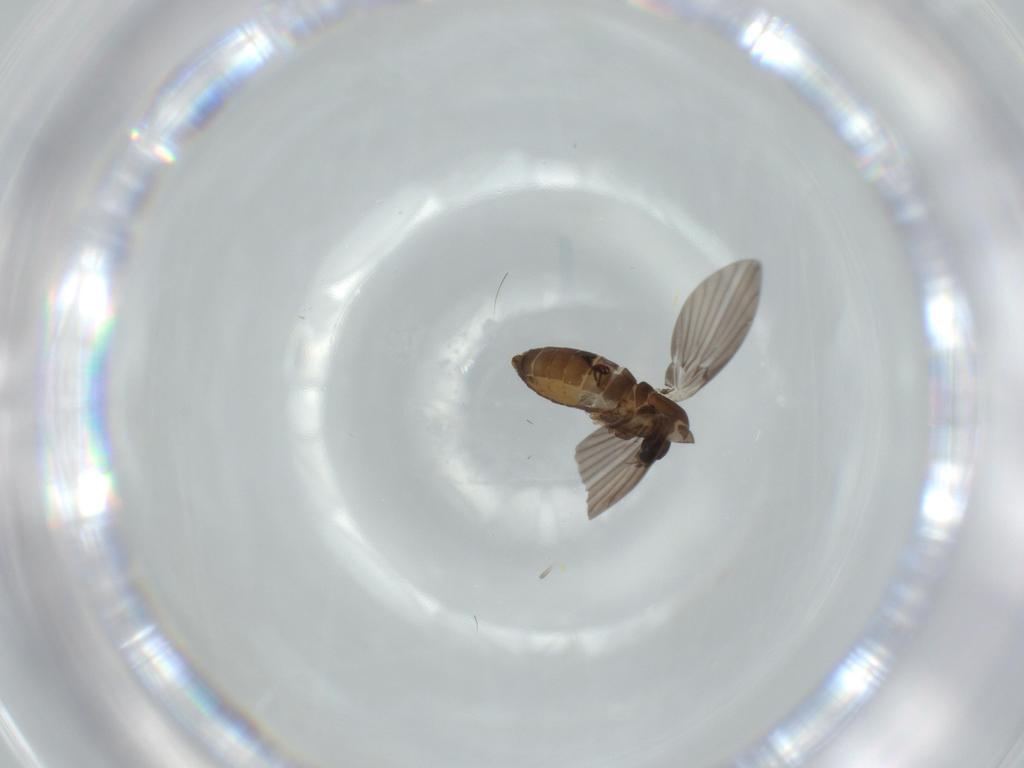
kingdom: Animalia
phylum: Arthropoda
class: Insecta
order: Diptera
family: Psychodidae
